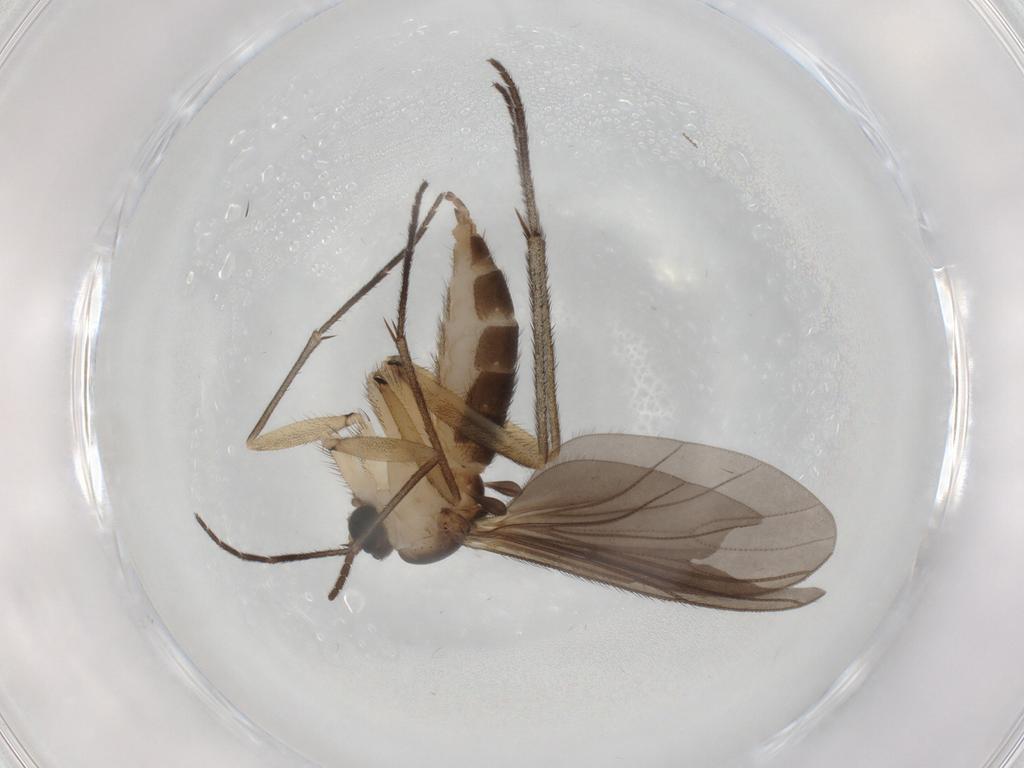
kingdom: Animalia
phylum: Arthropoda
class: Insecta
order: Diptera
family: Sciaridae
